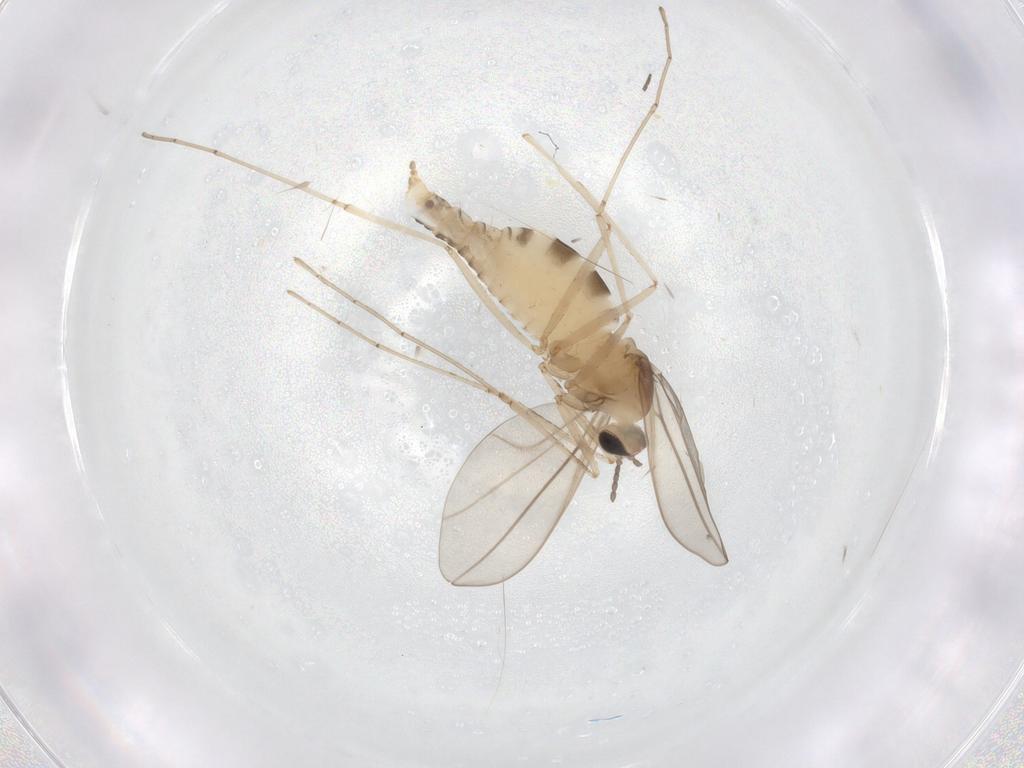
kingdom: Animalia
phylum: Arthropoda
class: Insecta
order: Diptera
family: Cecidomyiidae
